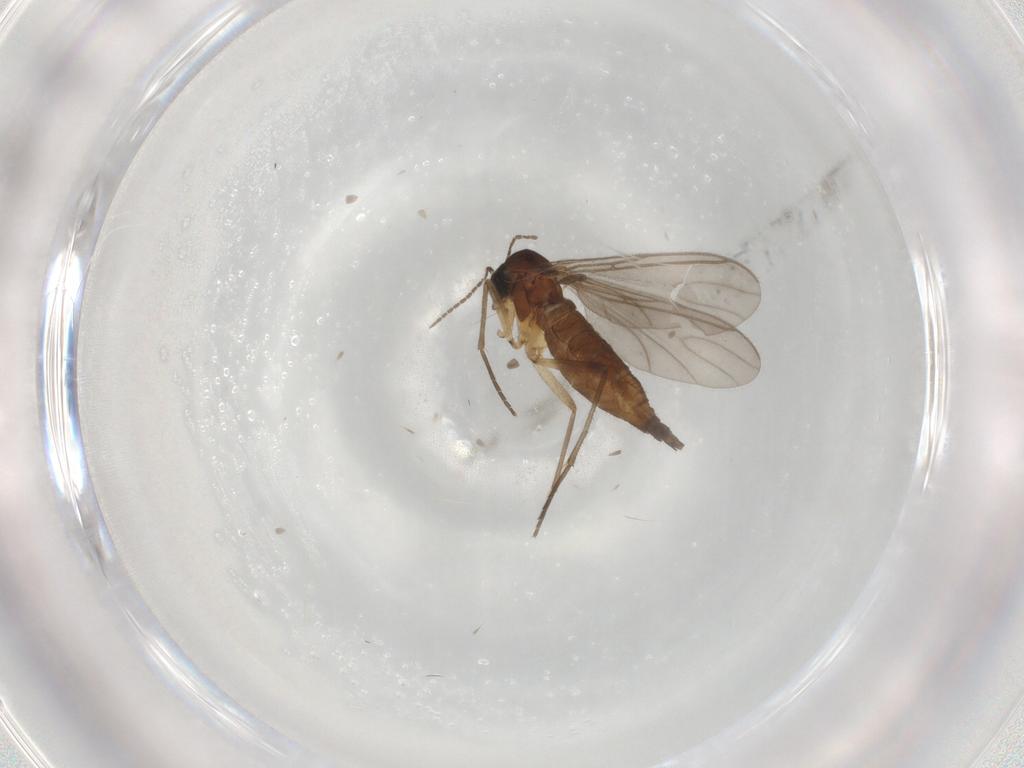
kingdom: Animalia
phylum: Arthropoda
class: Insecta
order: Diptera
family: Sciaridae
